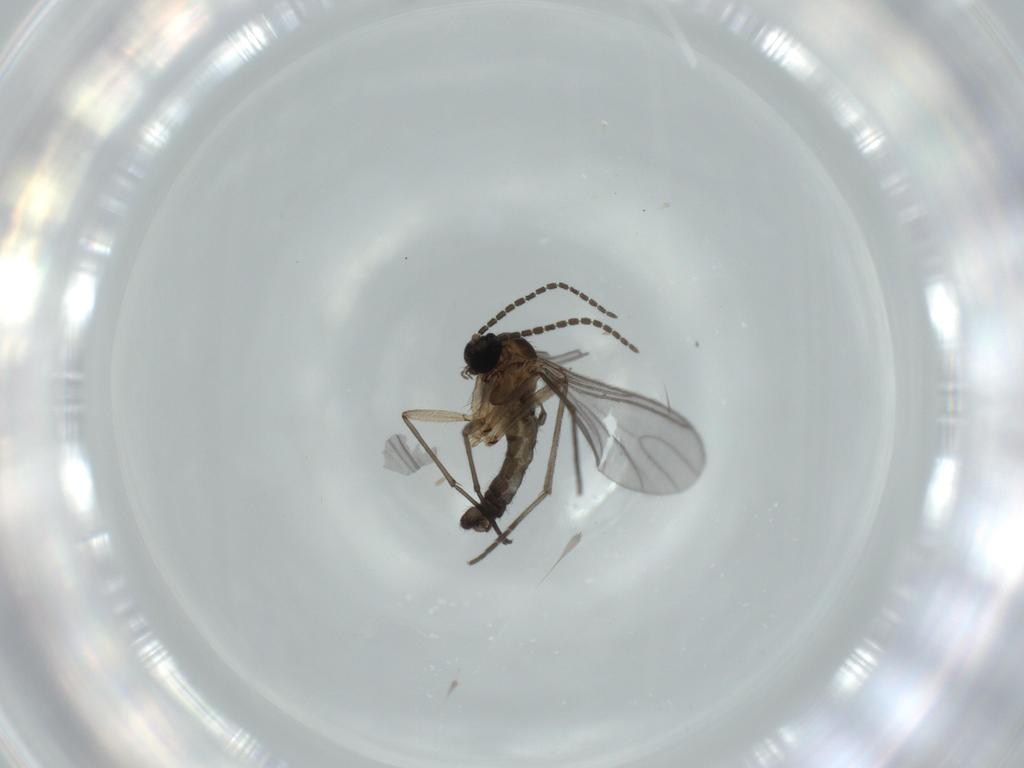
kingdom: Animalia
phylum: Arthropoda
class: Insecta
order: Diptera
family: Sciaridae
